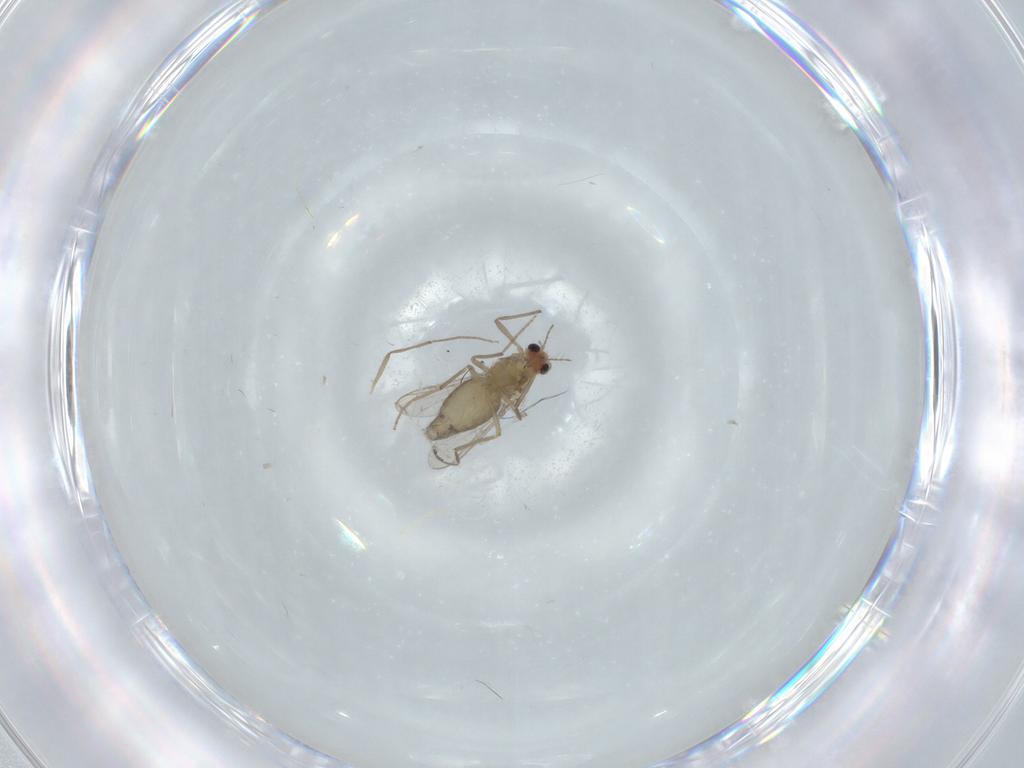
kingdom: Animalia
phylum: Arthropoda
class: Insecta
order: Diptera
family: Chironomidae
